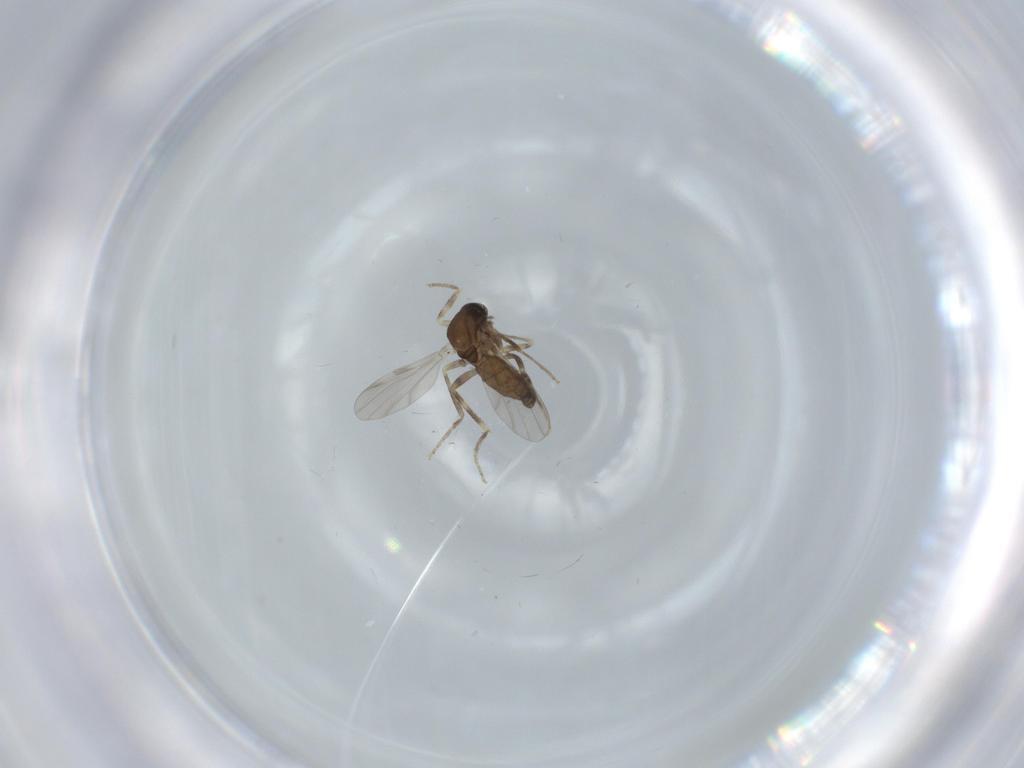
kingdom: Animalia
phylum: Arthropoda
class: Insecta
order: Diptera
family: Ceratopogonidae
